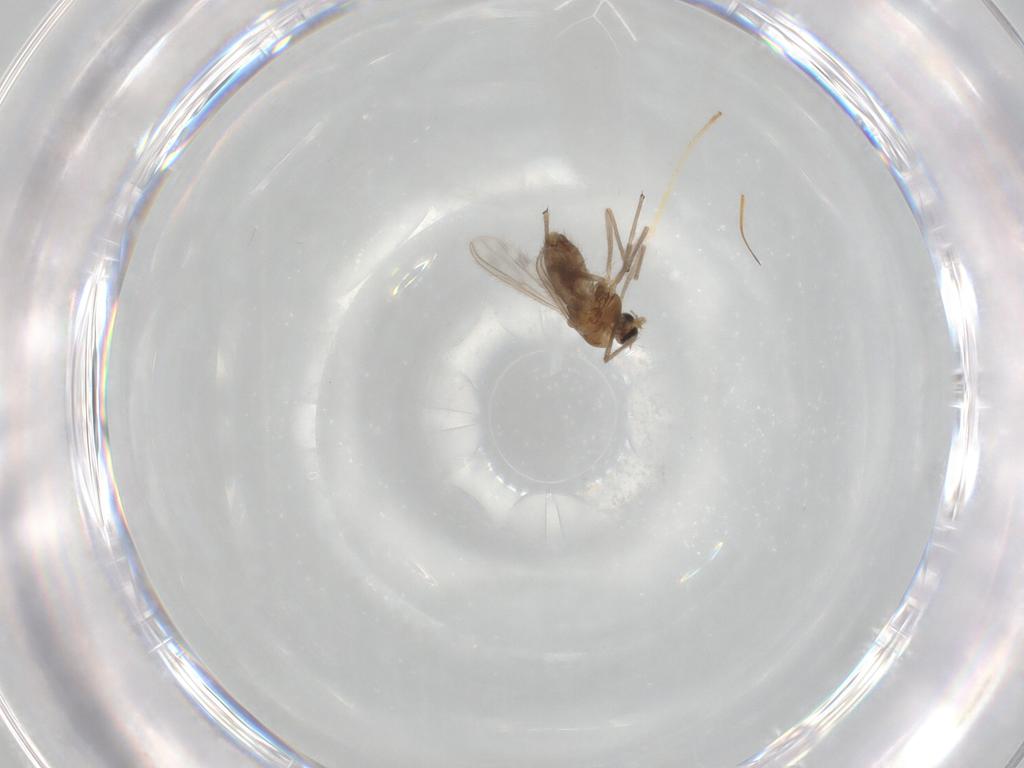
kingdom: Animalia
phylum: Arthropoda
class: Insecta
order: Diptera
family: Chironomidae
